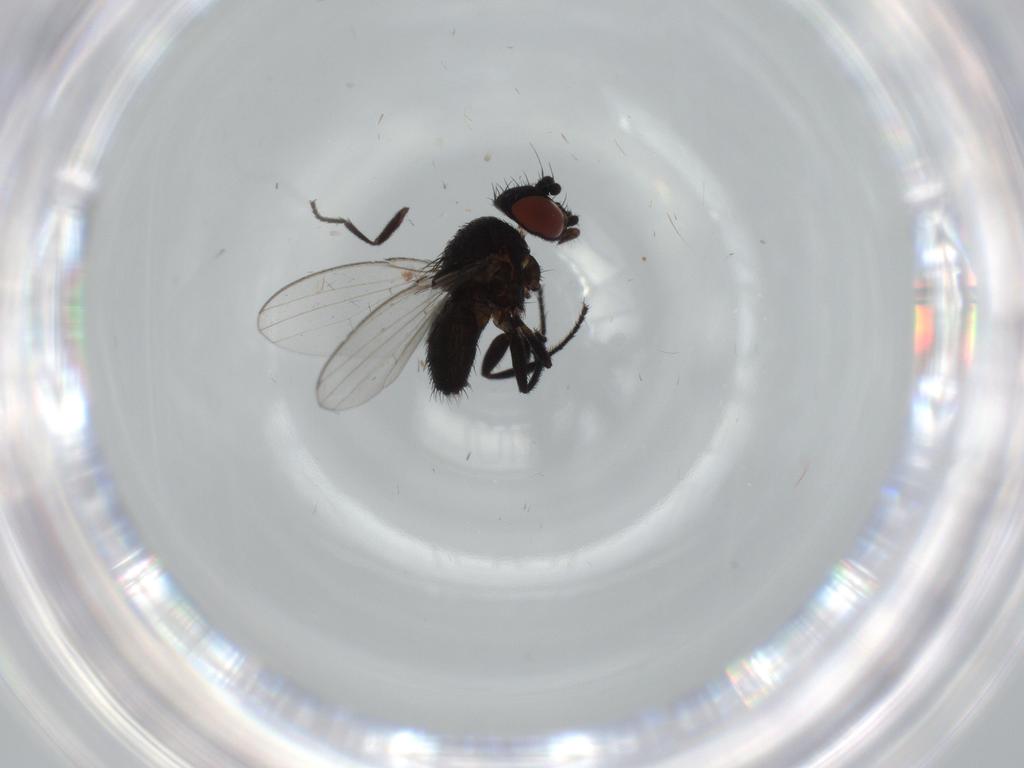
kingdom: Animalia
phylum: Arthropoda
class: Insecta
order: Diptera
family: Milichiidae
